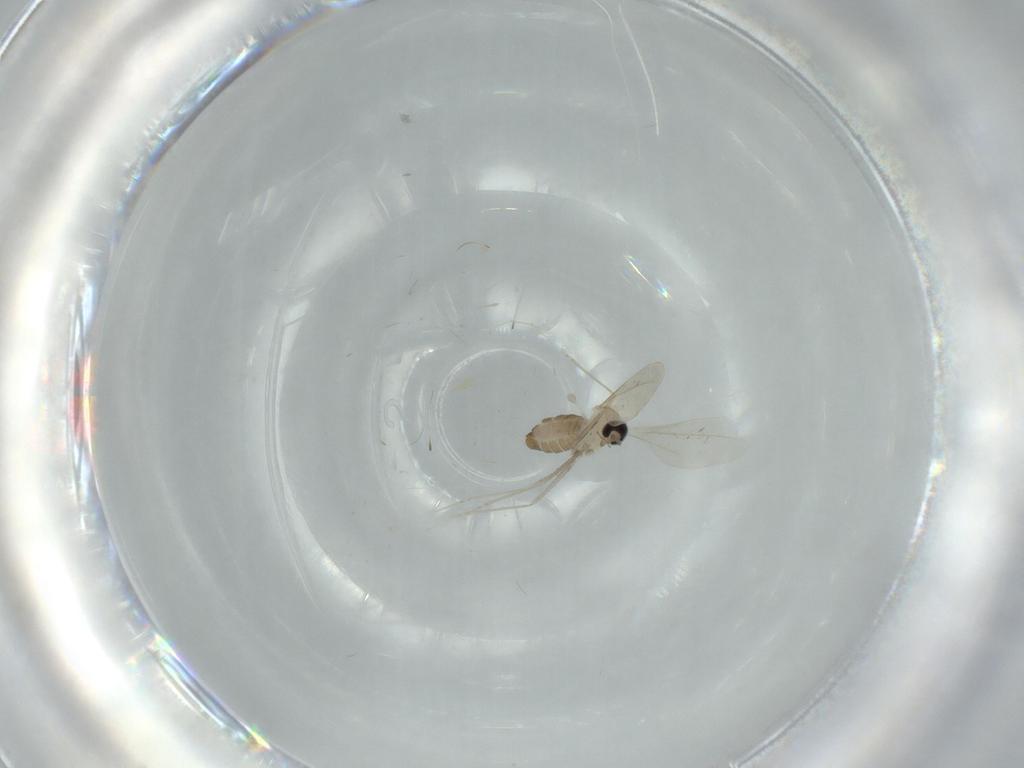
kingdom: Animalia
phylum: Arthropoda
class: Insecta
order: Diptera
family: Cecidomyiidae
